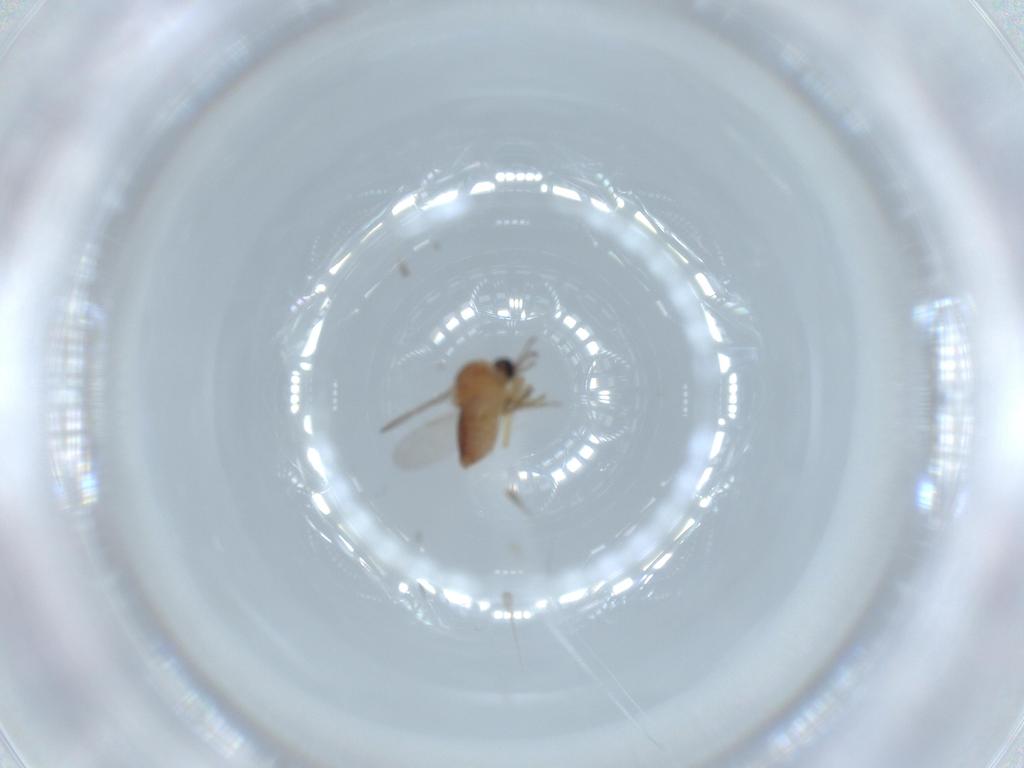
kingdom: Animalia
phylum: Arthropoda
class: Insecta
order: Diptera
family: Ceratopogonidae
